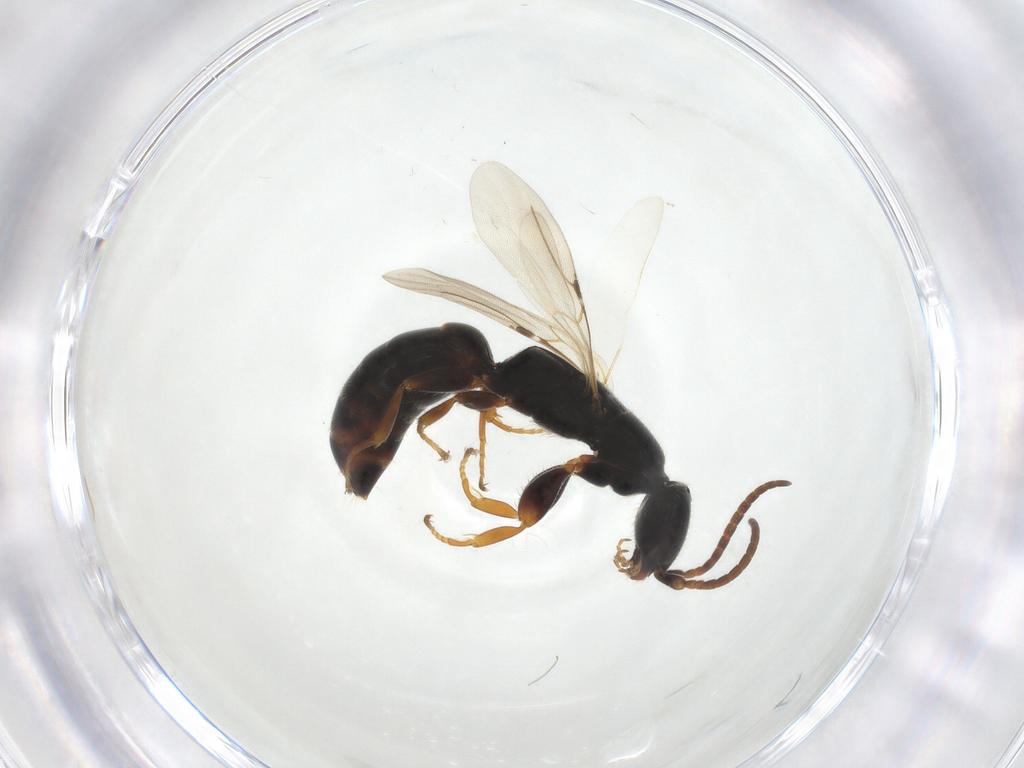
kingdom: Animalia
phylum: Arthropoda
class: Insecta
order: Hymenoptera
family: Bethylidae
